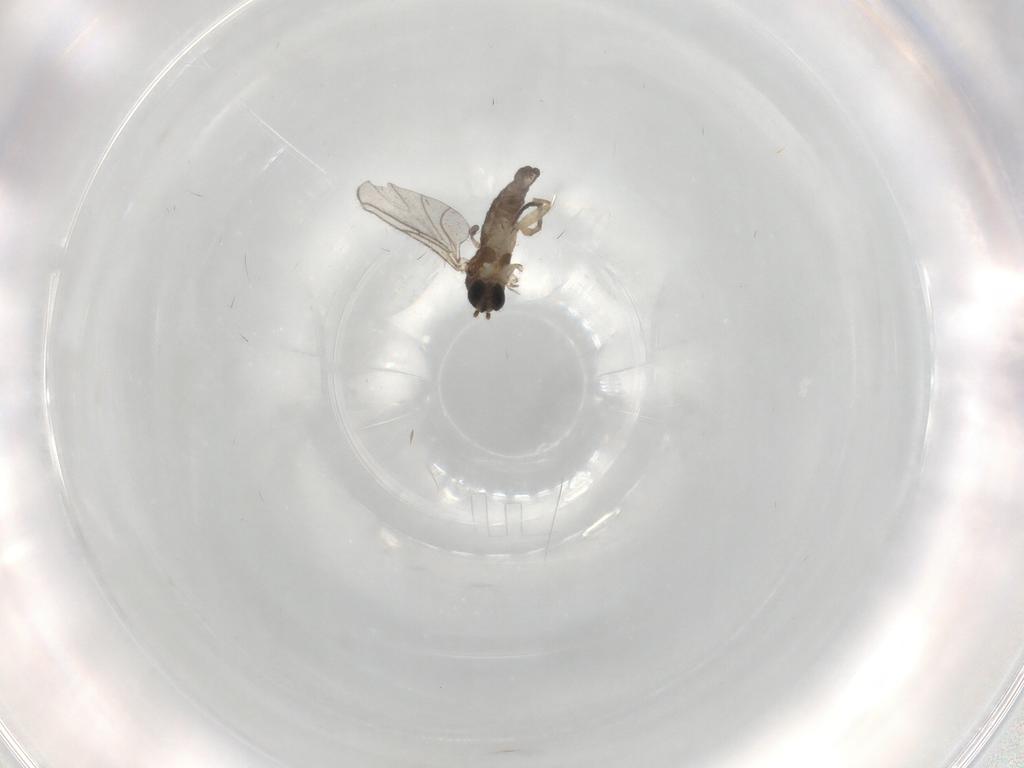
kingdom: Animalia
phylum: Arthropoda
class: Insecta
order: Diptera
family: Sciaridae
